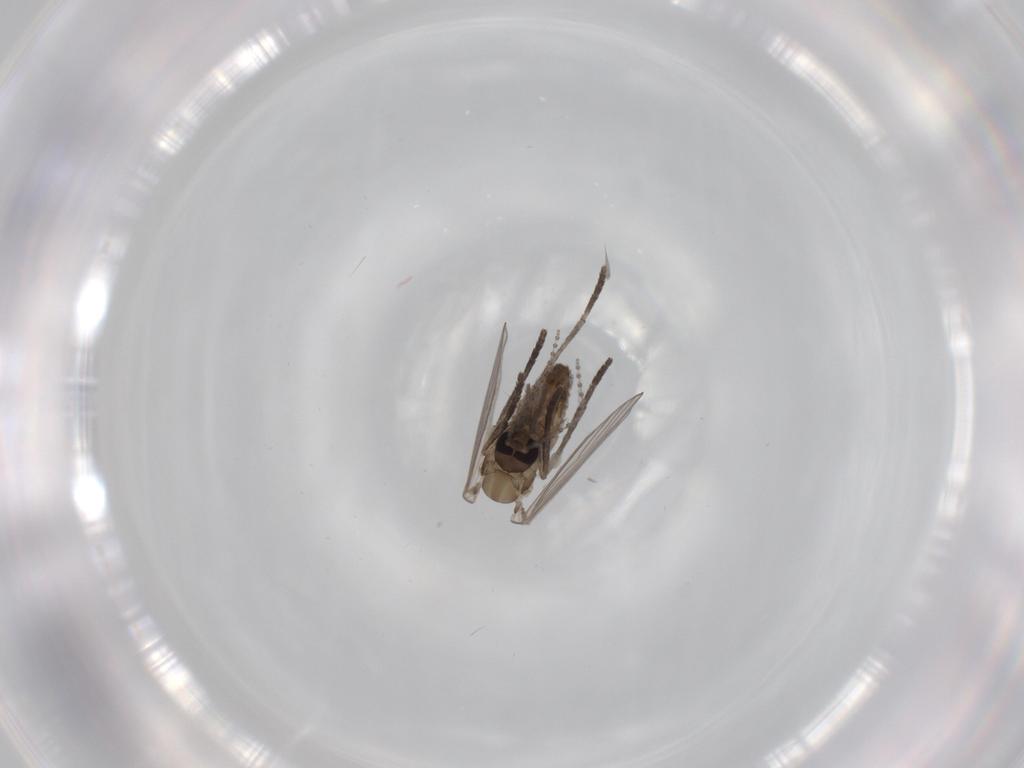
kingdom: Animalia
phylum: Arthropoda
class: Insecta
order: Diptera
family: Psychodidae
